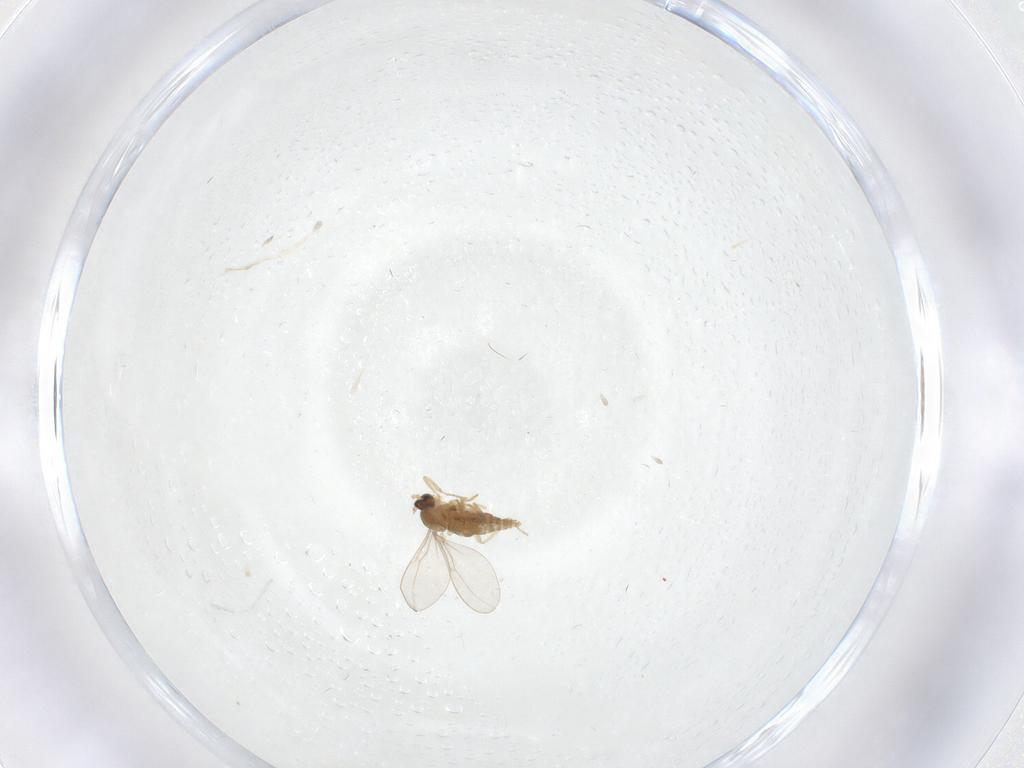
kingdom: Animalia
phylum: Arthropoda
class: Insecta
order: Diptera
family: Cecidomyiidae
